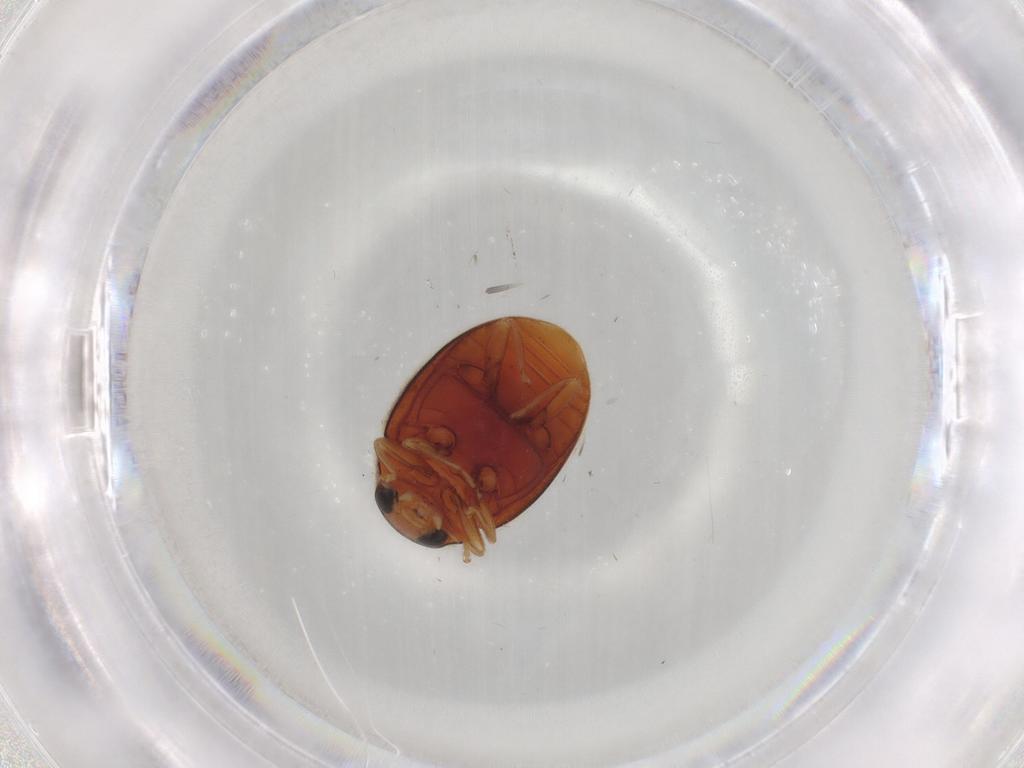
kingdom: Animalia
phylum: Arthropoda
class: Insecta
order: Coleoptera
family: Coccinellidae
